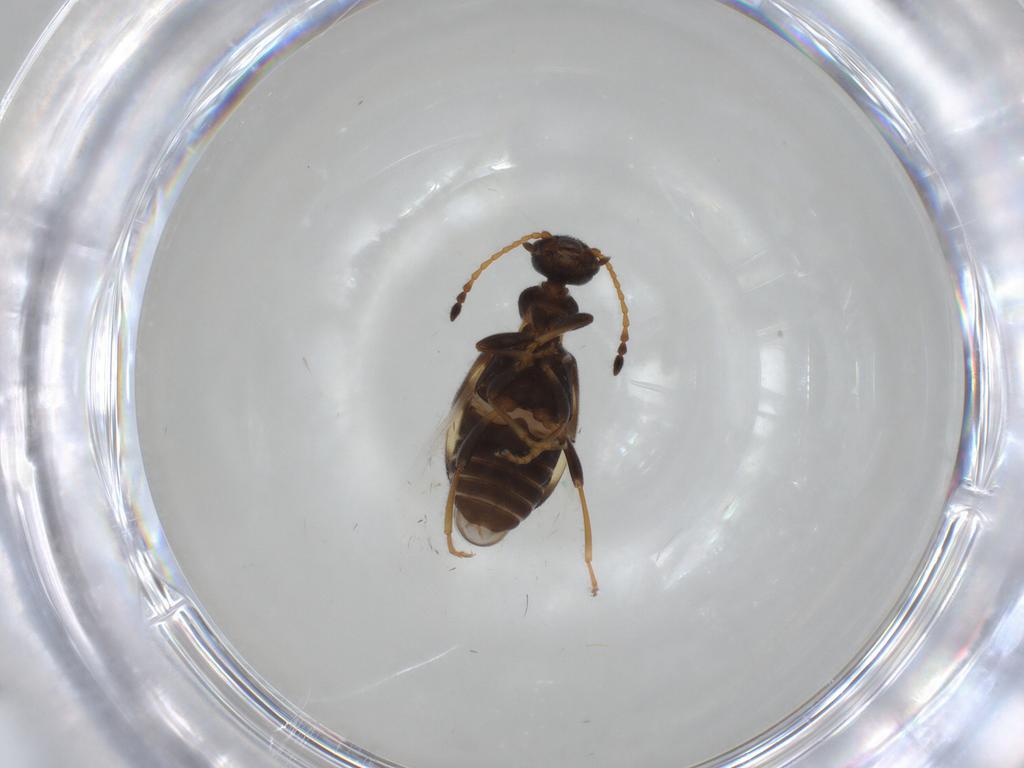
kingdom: Animalia
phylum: Arthropoda
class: Insecta
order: Coleoptera
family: Anthicidae
